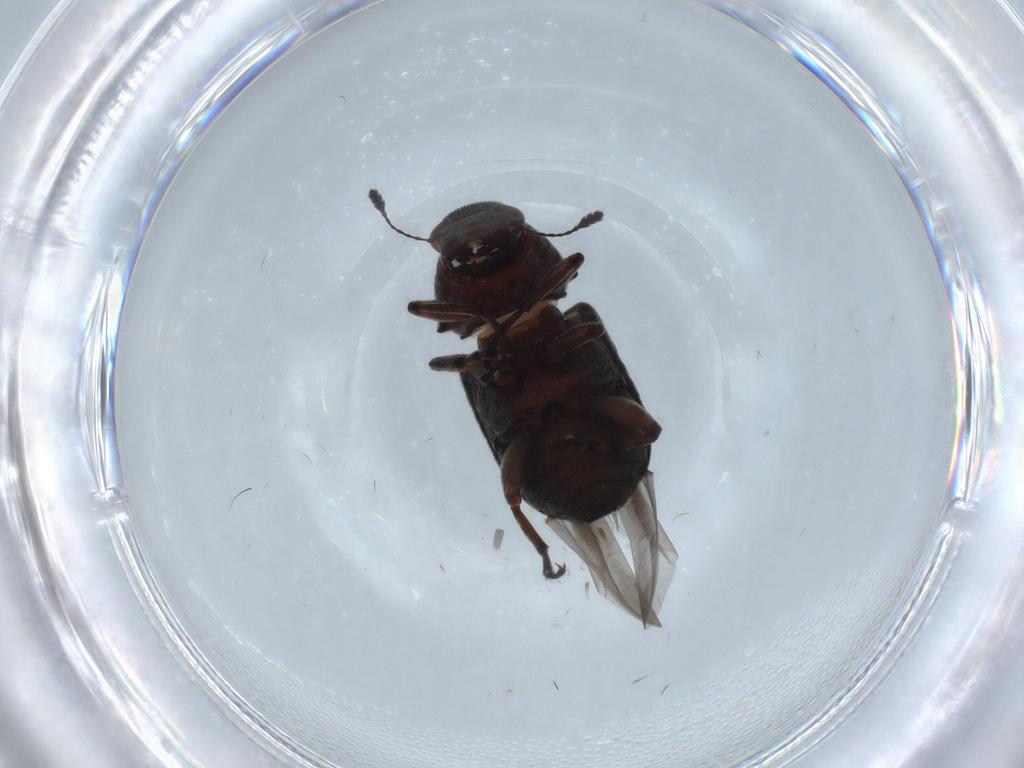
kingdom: Animalia
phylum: Arthropoda
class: Insecta
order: Coleoptera
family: Anthribidae
